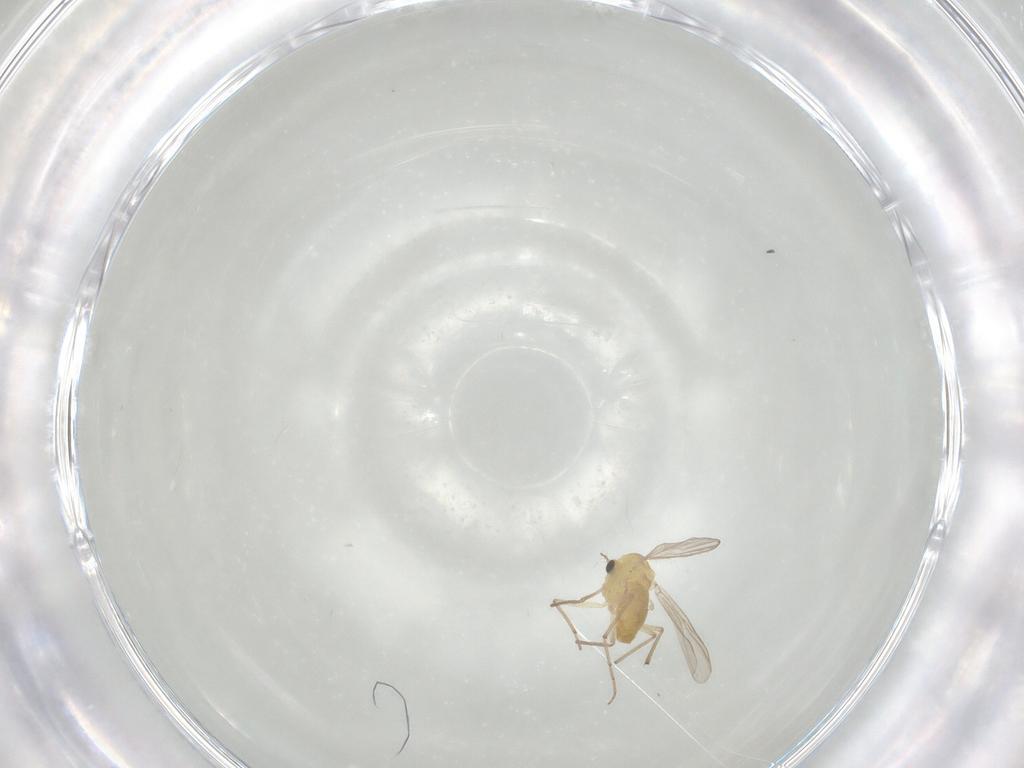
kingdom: Animalia
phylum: Arthropoda
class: Insecta
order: Diptera
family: Chironomidae
